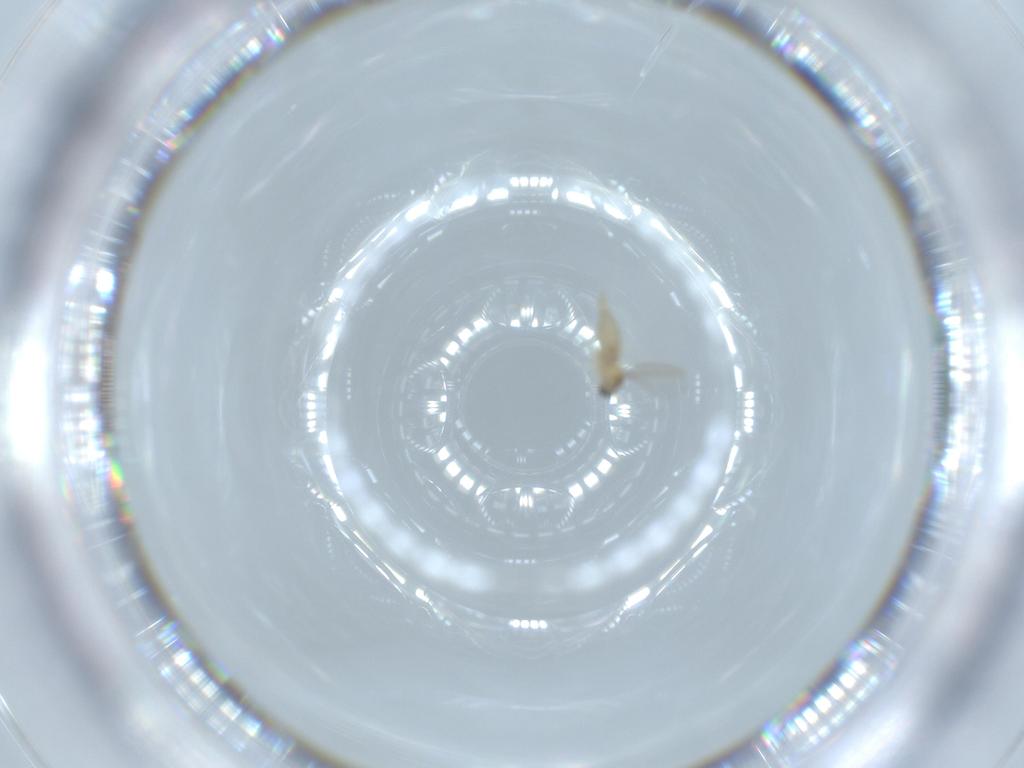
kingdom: Animalia
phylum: Arthropoda
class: Insecta
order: Diptera
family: Cecidomyiidae
